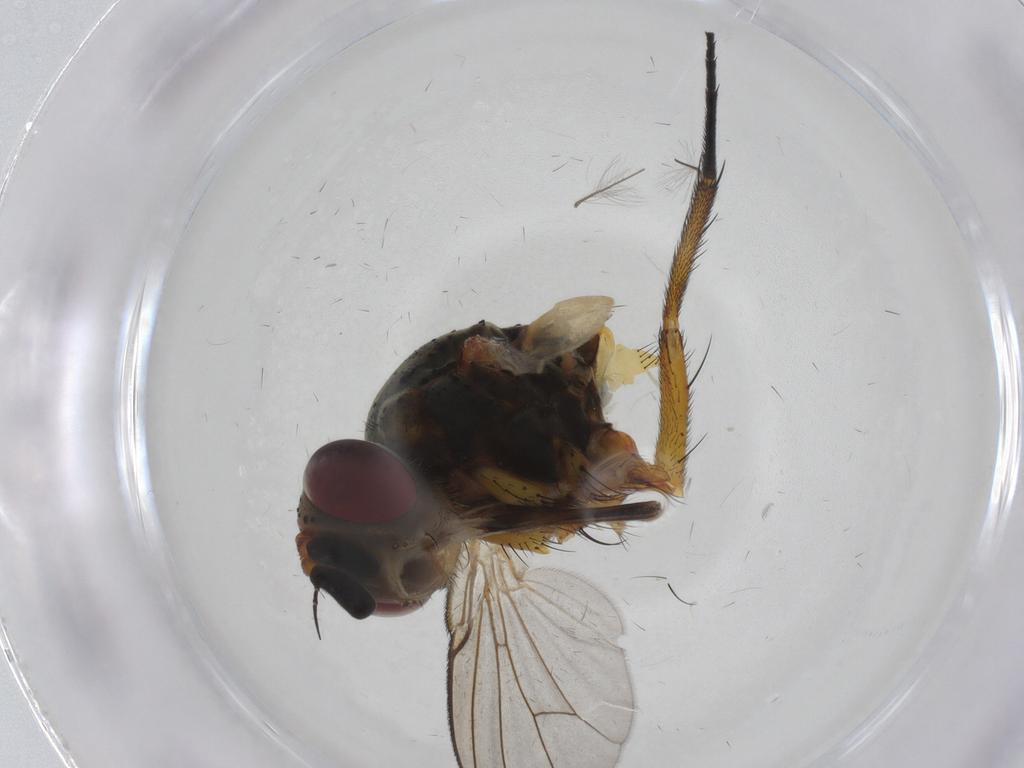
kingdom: Animalia
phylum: Arthropoda
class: Insecta
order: Diptera
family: Tachinidae
